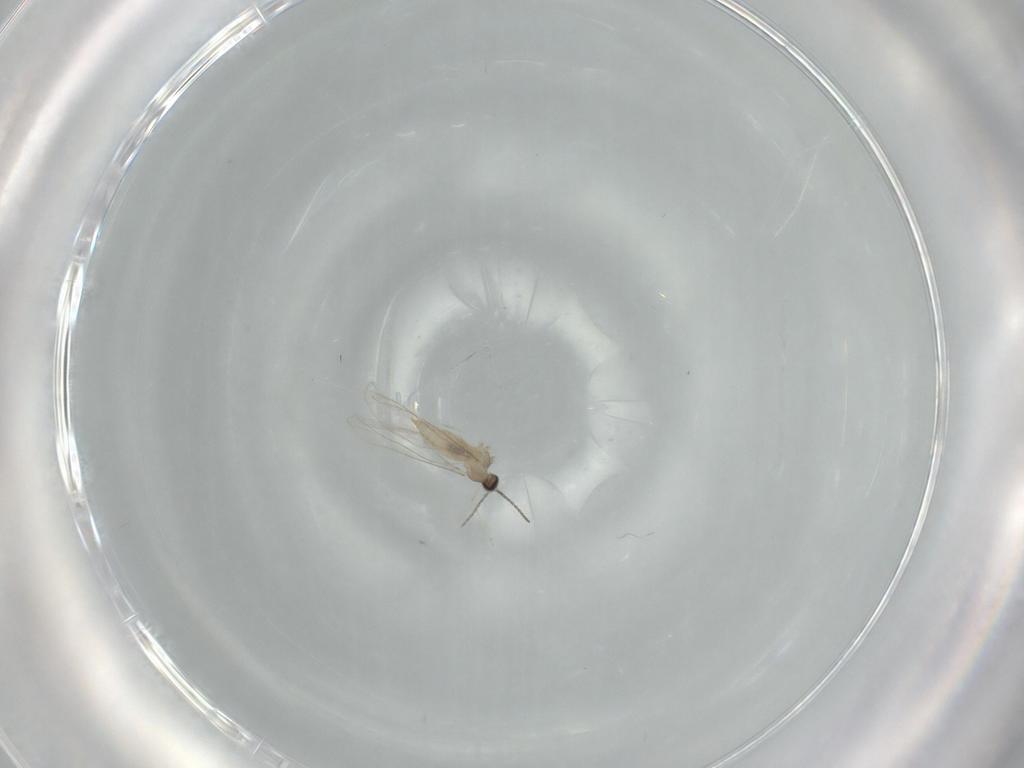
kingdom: Animalia
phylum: Arthropoda
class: Insecta
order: Diptera
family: Cecidomyiidae
